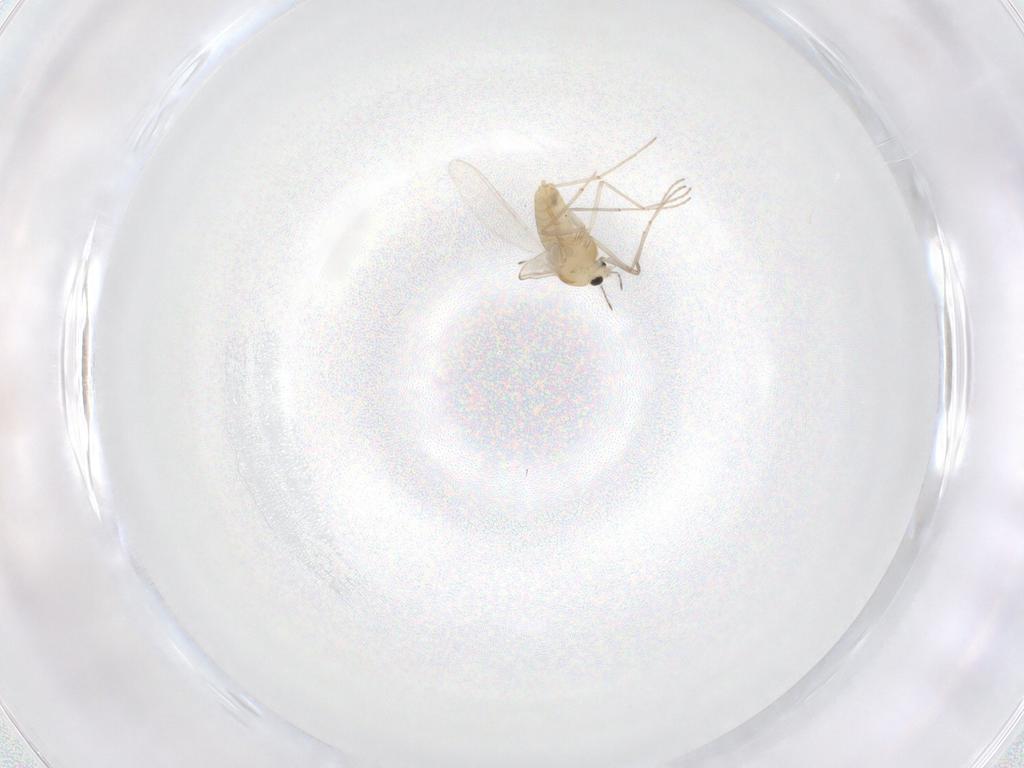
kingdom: Animalia
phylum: Arthropoda
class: Insecta
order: Diptera
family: Chironomidae
